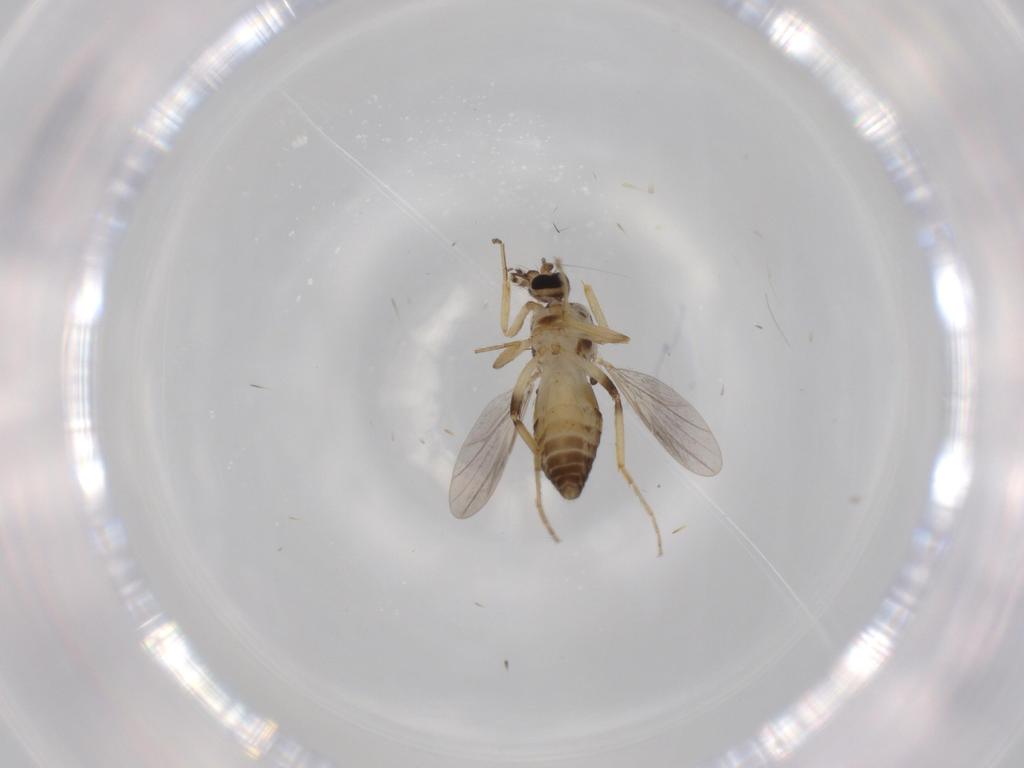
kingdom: Animalia
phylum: Arthropoda
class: Insecta
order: Diptera
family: Ceratopogonidae
